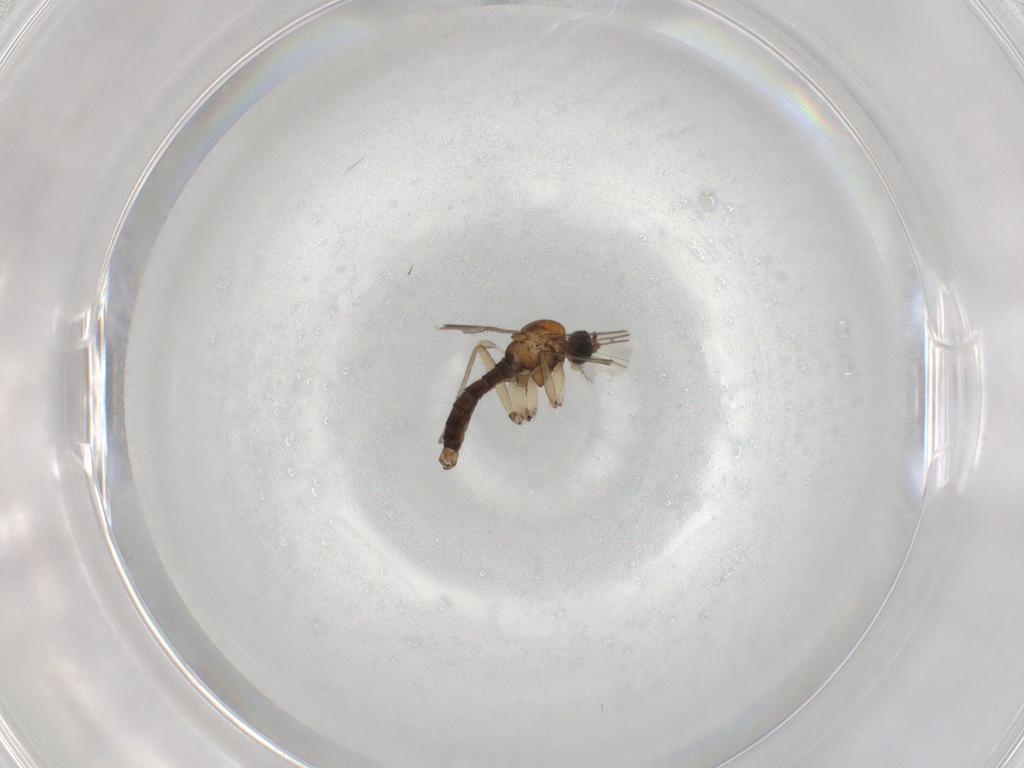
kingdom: Animalia
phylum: Arthropoda
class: Insecta
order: Diptera
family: Sciaridae
